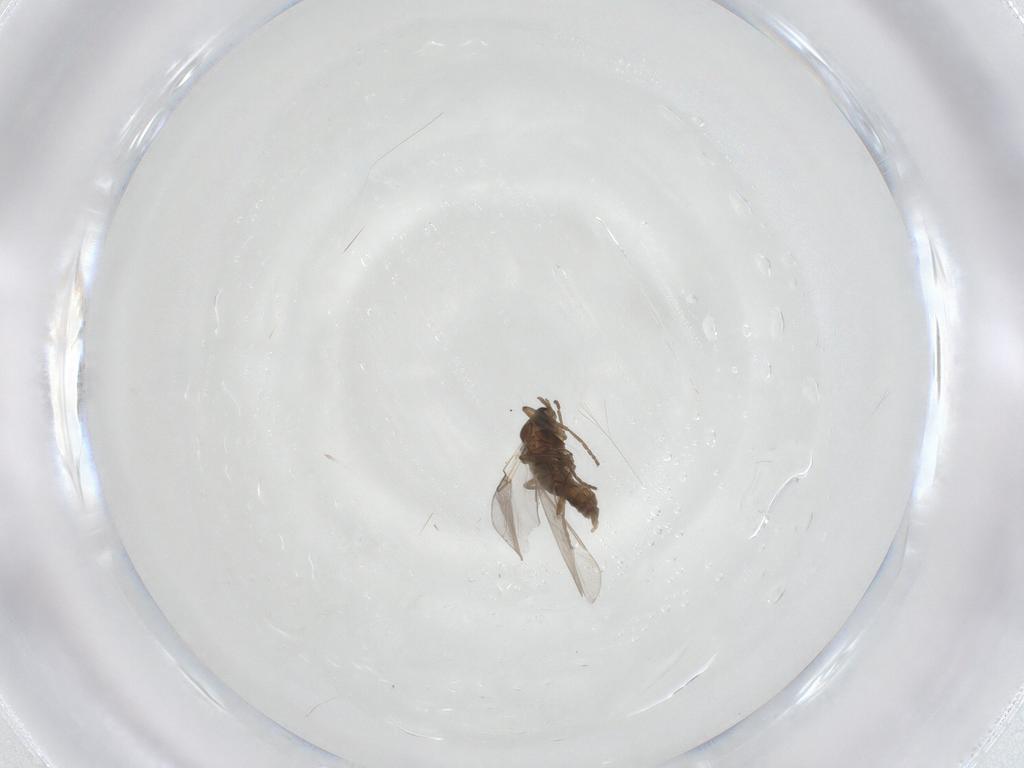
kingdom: Animalia
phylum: Arthropoda
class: Insecta
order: Diptera
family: Cecidomyiidae
